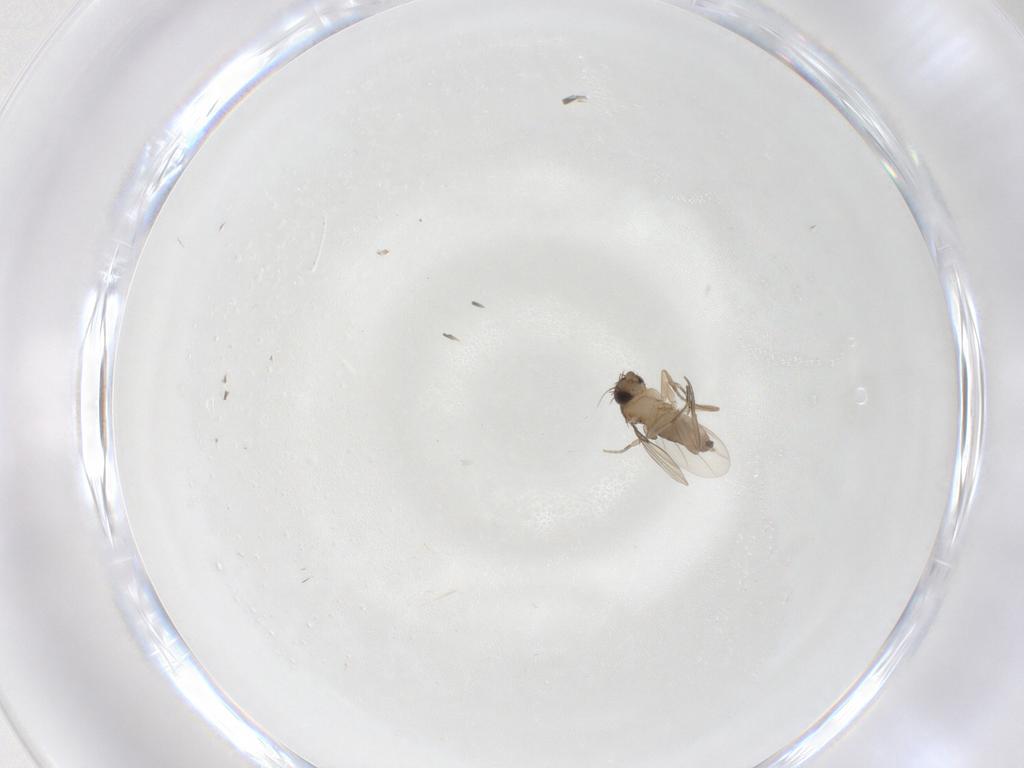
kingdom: Animalia
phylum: Arthropoda
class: Insecta
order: Diptera
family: Phoridae
